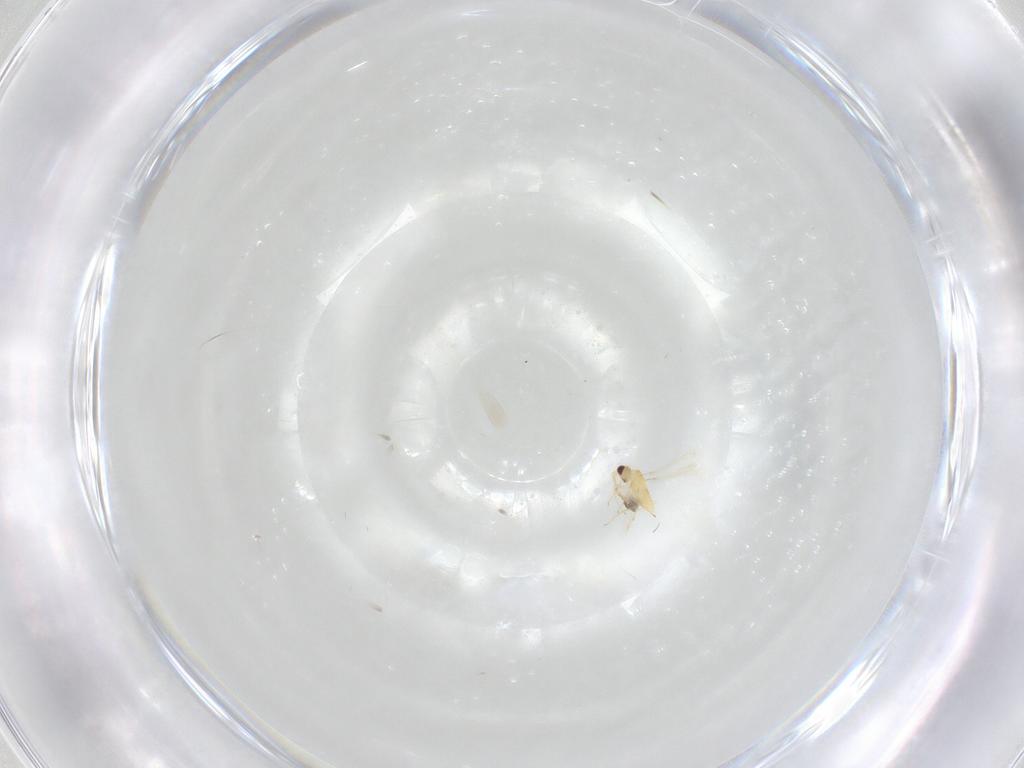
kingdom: Animalia
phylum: Arthropoda
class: Insecta
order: Hymenoptera
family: Mymaridae
